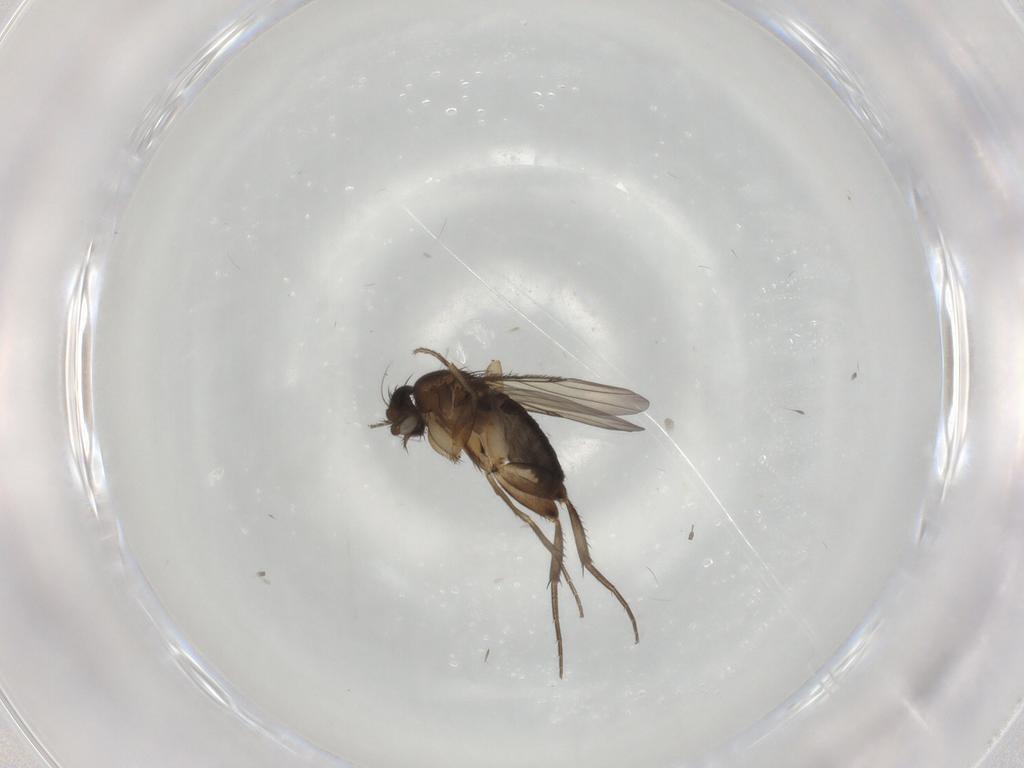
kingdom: Animalia
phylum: Arthropoda
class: Insecta
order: Diptera
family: Phoridae
